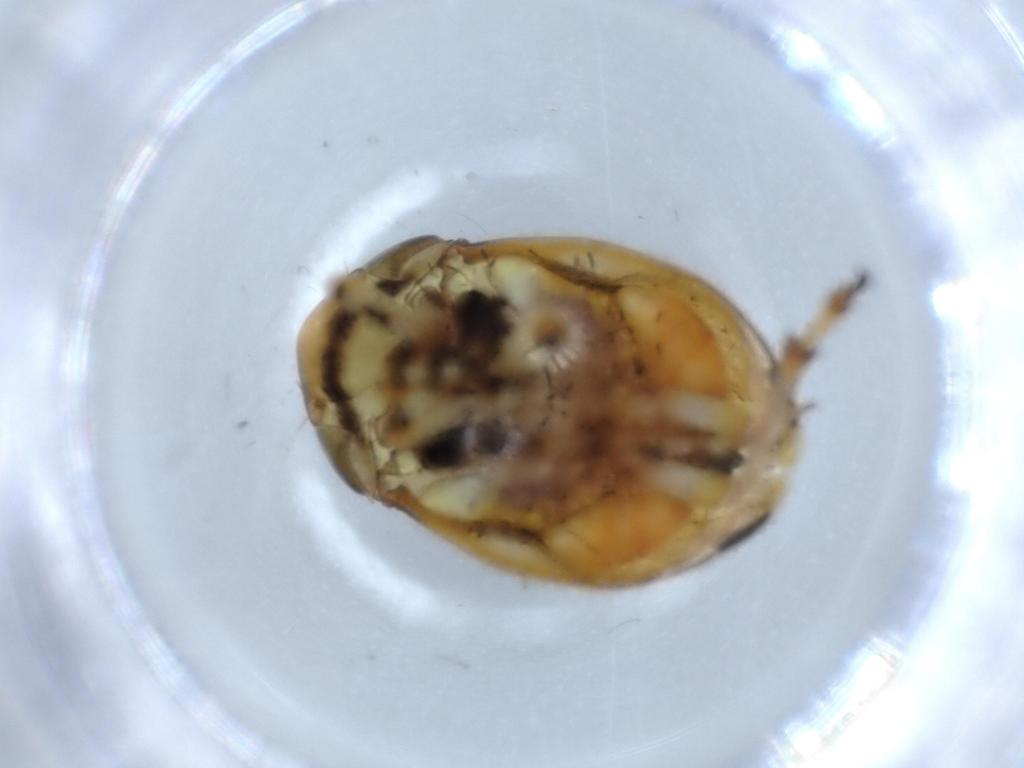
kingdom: Animalia
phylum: Arthropoda
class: Insecta
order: Hemiptera
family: Clastopteridae
